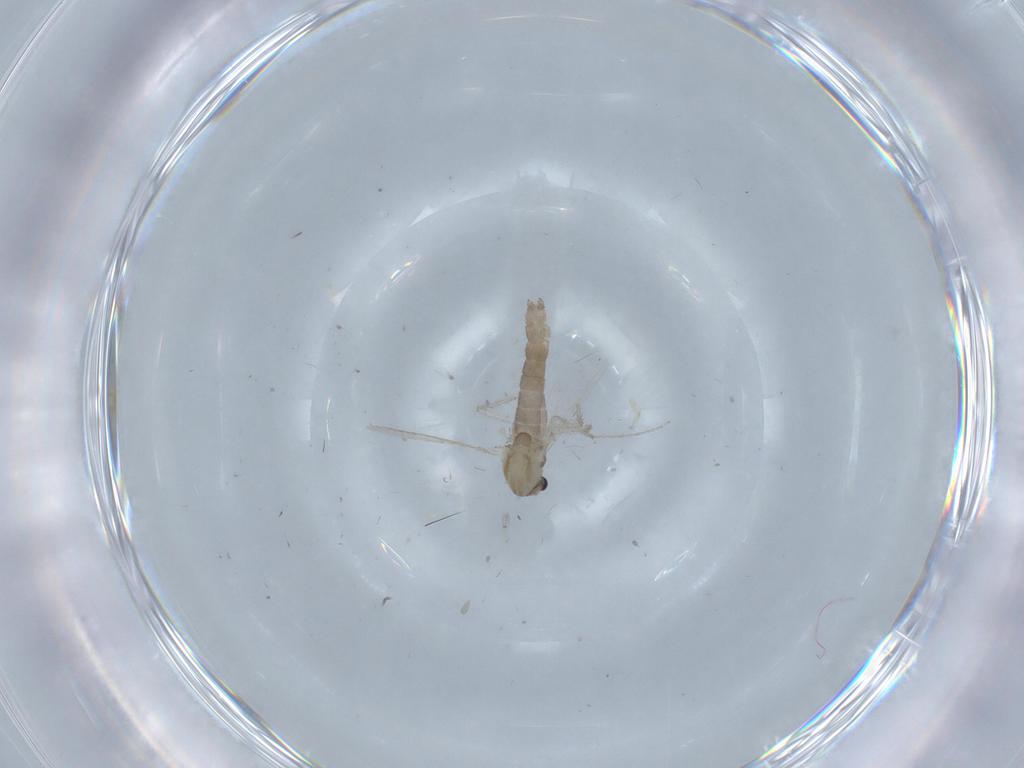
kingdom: Animalia
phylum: Arthropoda
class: Insecta
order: Diptera
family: Chironomidae
